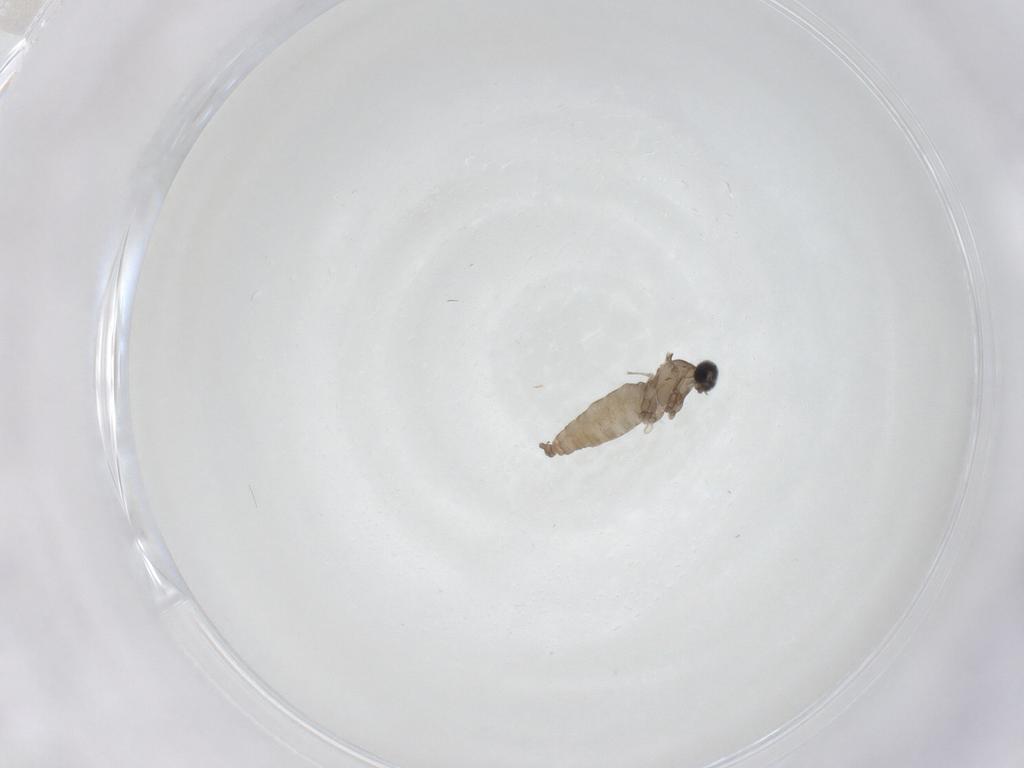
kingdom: Animalia
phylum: Arthropoda
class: Insecta
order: Diptera
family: Cecidomyiidae
